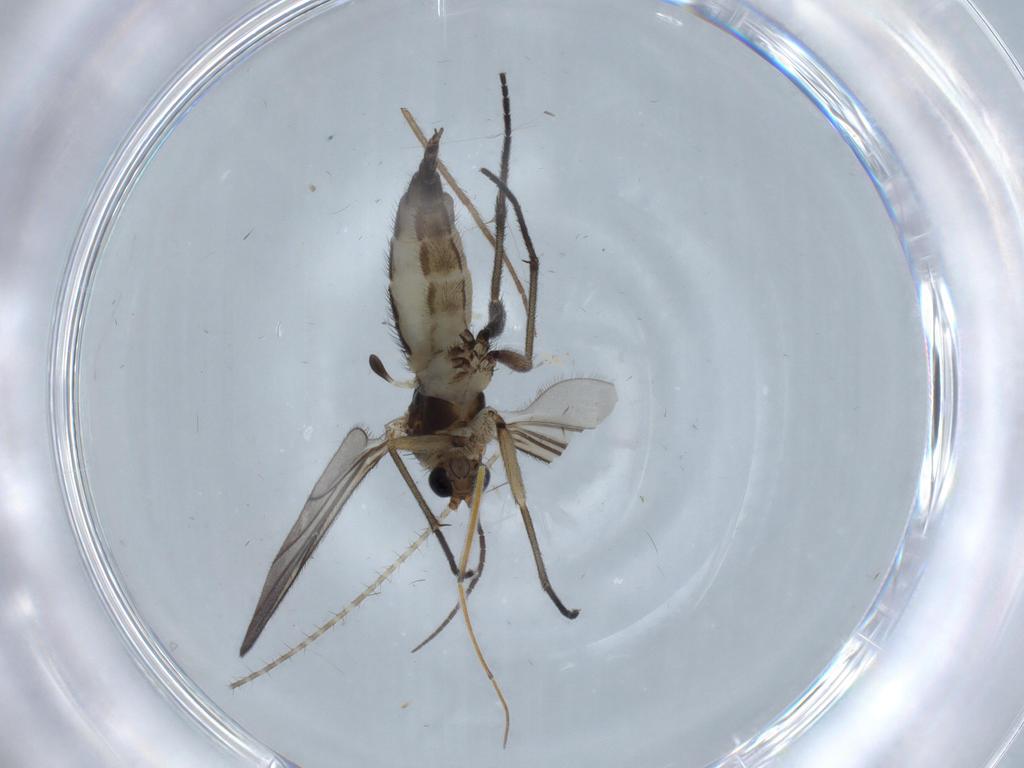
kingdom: Animalia
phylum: Arthropoda
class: Insecta
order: Diptera
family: Sciaridae
